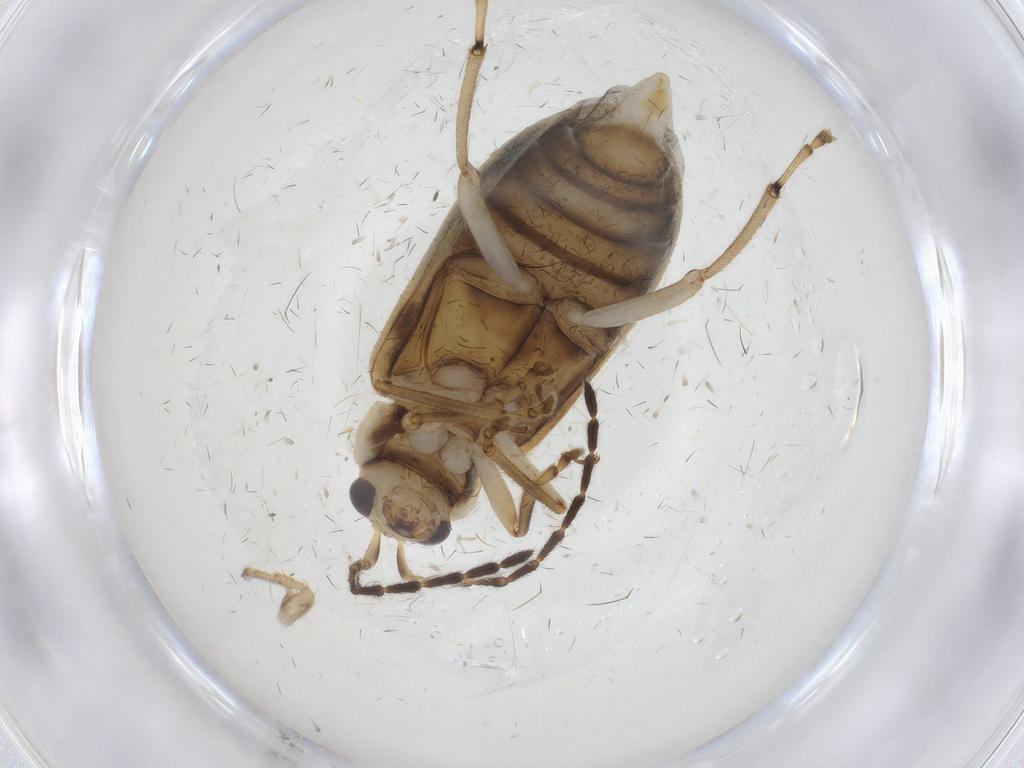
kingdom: Animalia
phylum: Arthropoda
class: Insecta
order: Coleoptera
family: Chrysomelidae
